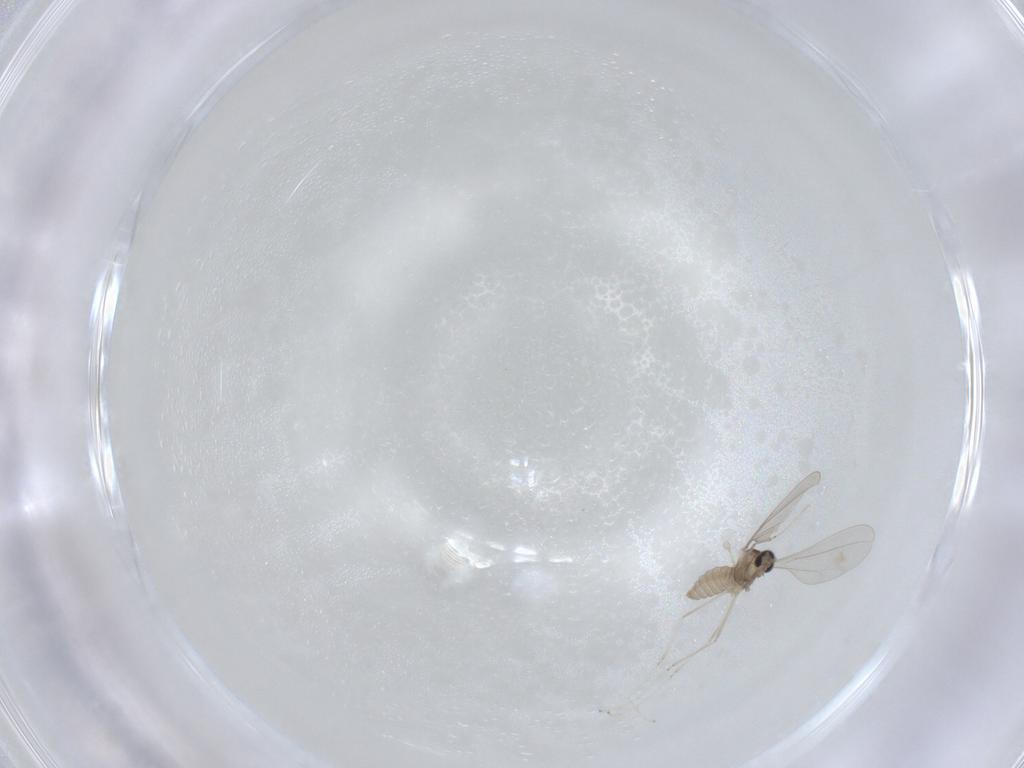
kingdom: Animalia
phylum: Arthropoda
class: Insecta
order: Diptera
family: Cecidomyiidae
